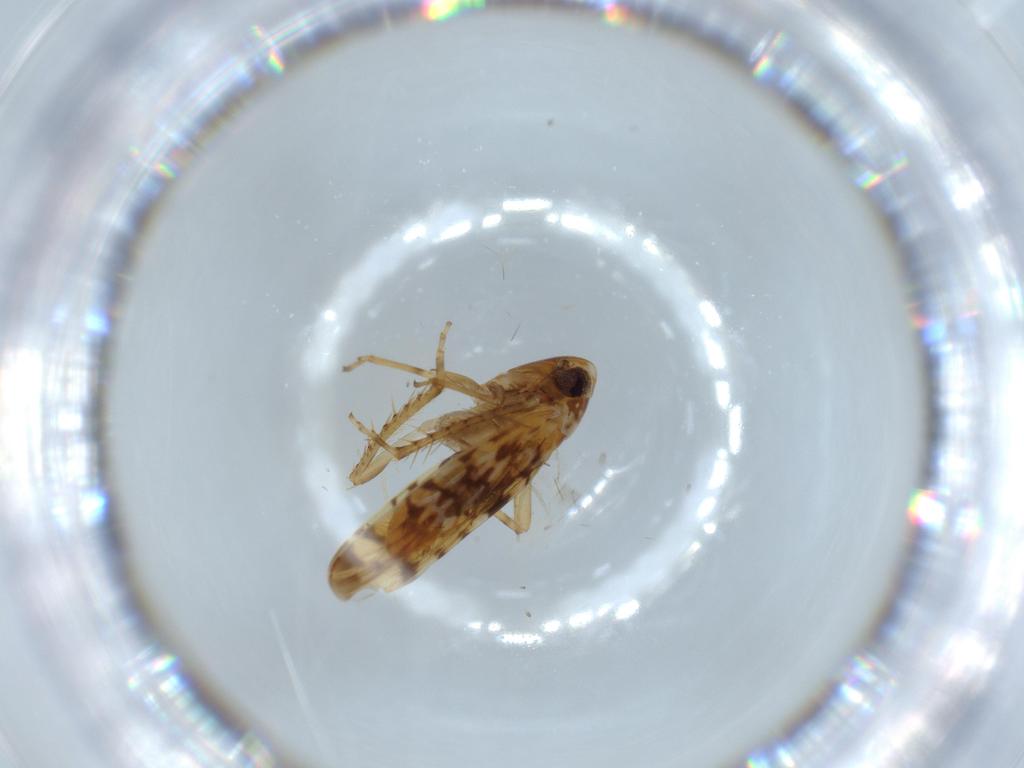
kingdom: Animalia
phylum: Arthropoda
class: Insecta
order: Hemiptera
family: Cicadellidae
